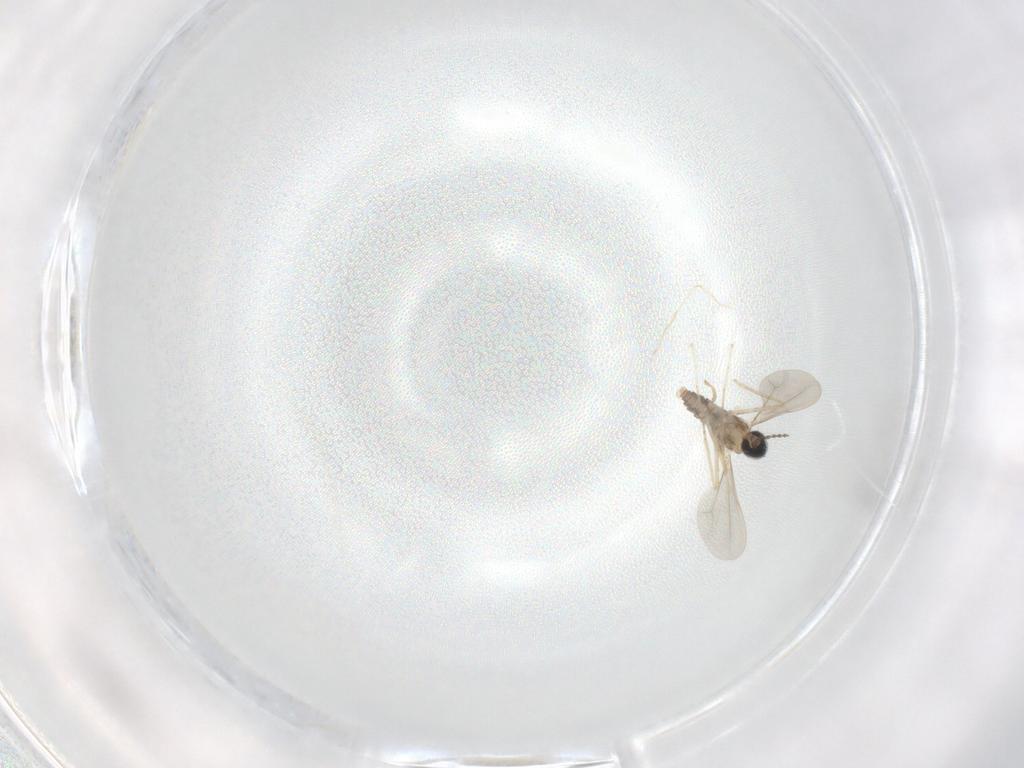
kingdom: Animalia
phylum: Arthropoda
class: Insecta
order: Diptera
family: Cecidomyiidae
